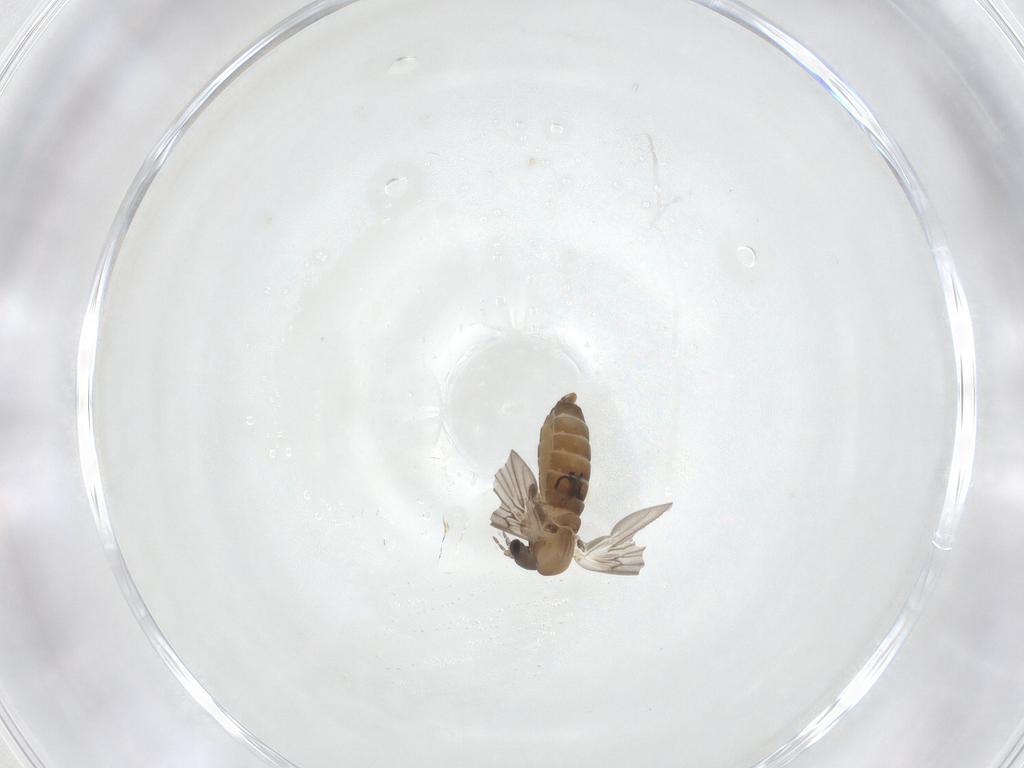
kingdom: Animalia
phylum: Arthropoda
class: Insecta
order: Diptera
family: Psychodidae
